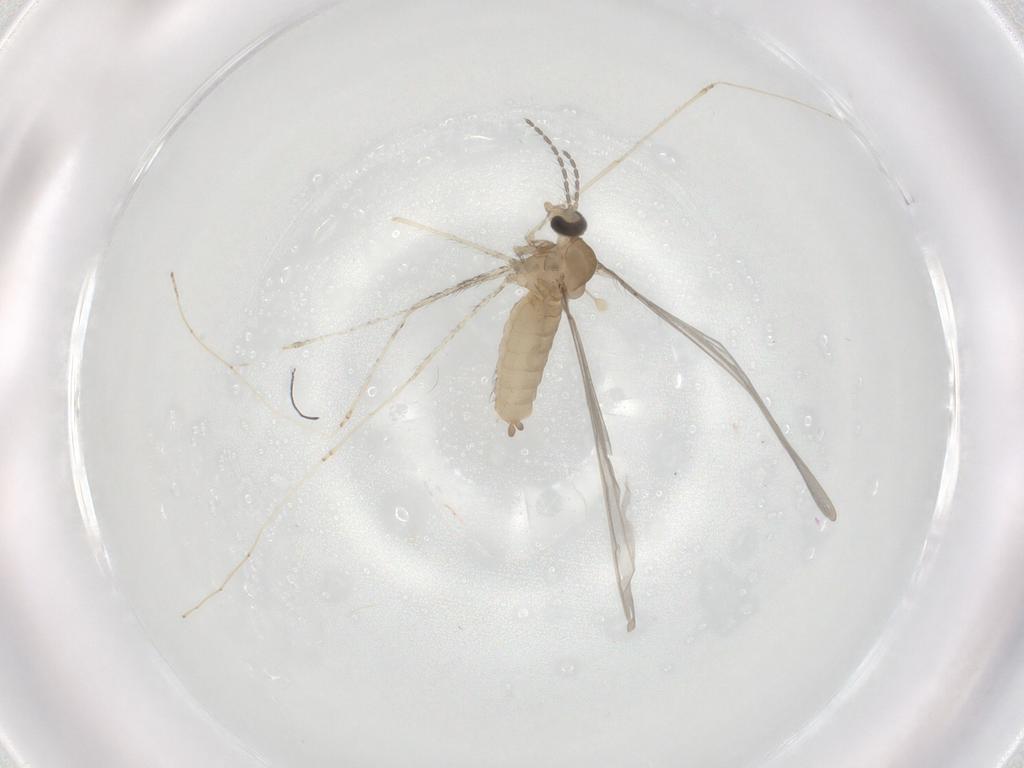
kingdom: Animalia
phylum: Arthropoda
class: Insecta
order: Diptera
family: Cecidomyiidae
